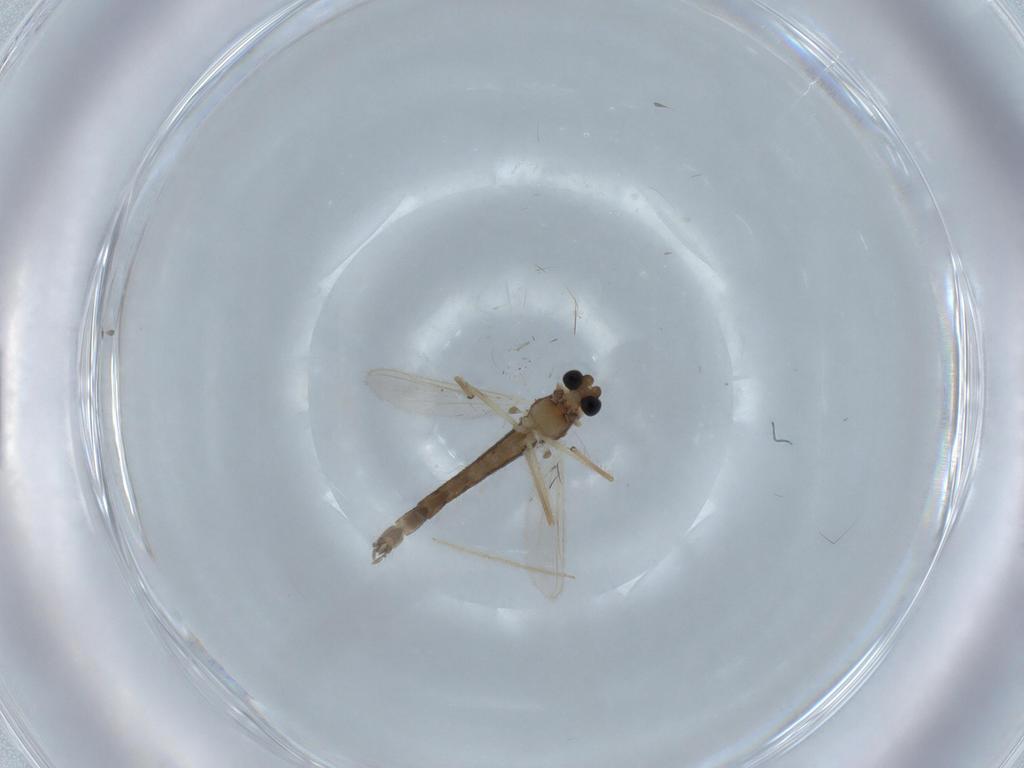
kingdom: Animalia
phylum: Arthropoda
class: Insecta
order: Diptera
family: Chironomidae
